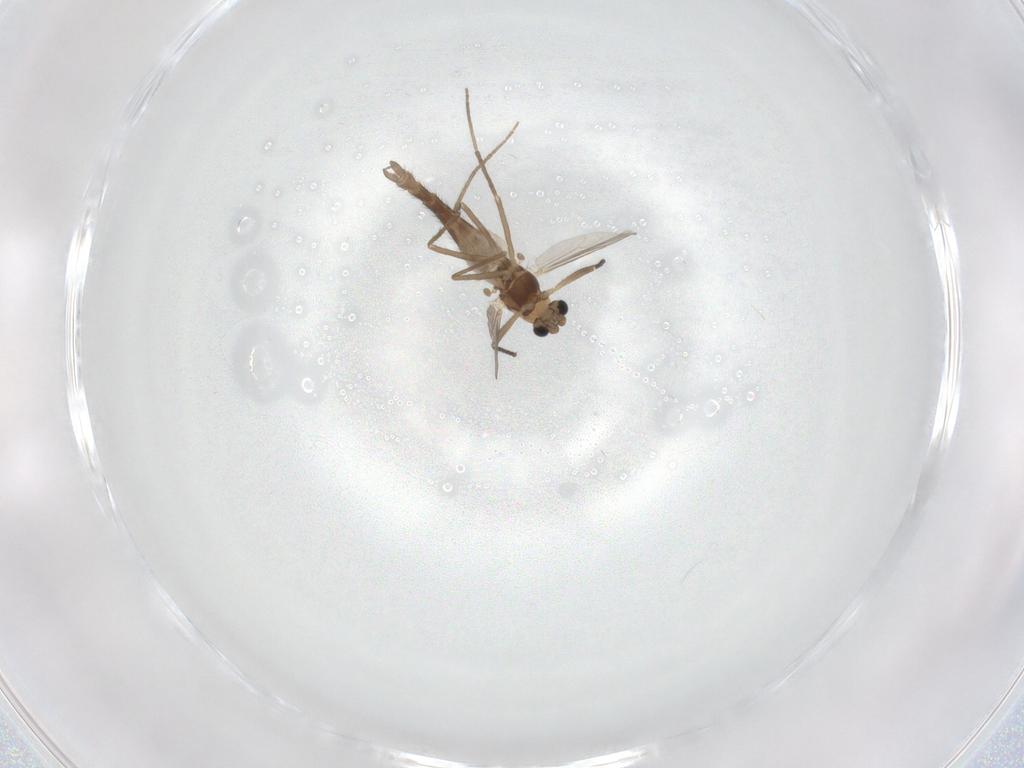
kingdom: Animalia
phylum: Arthropoda
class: Insecta
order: Diptera
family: Chironomidae
